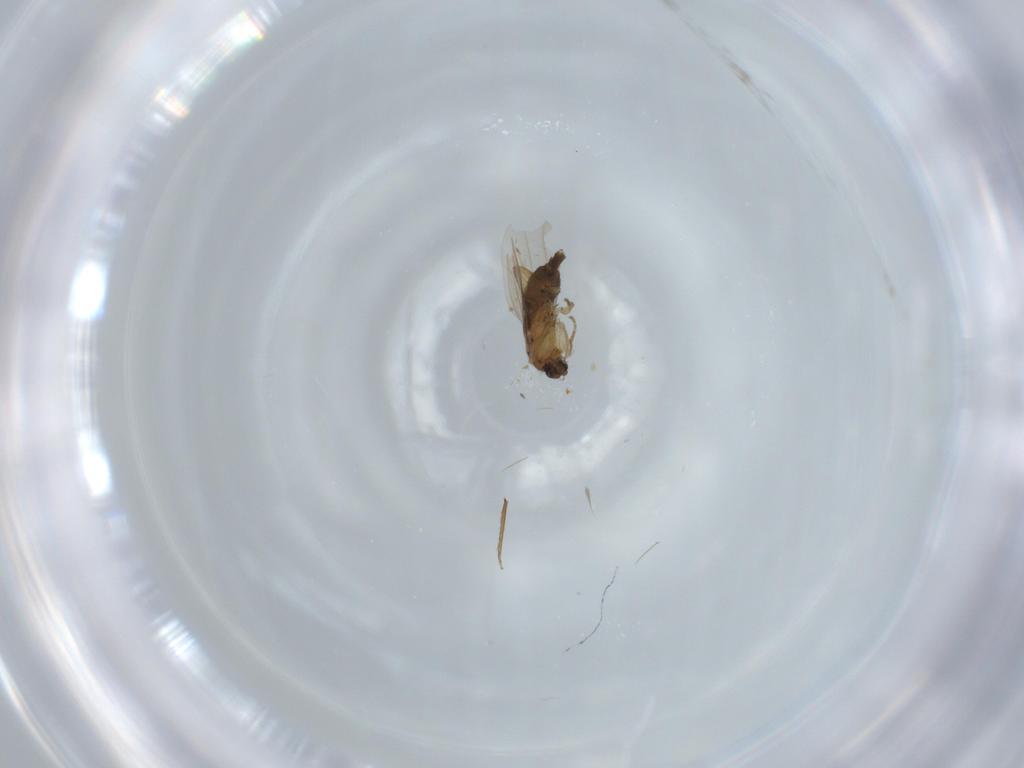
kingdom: Animalia
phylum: Arthropoda
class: Insecta
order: Diptera
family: Phoridae
